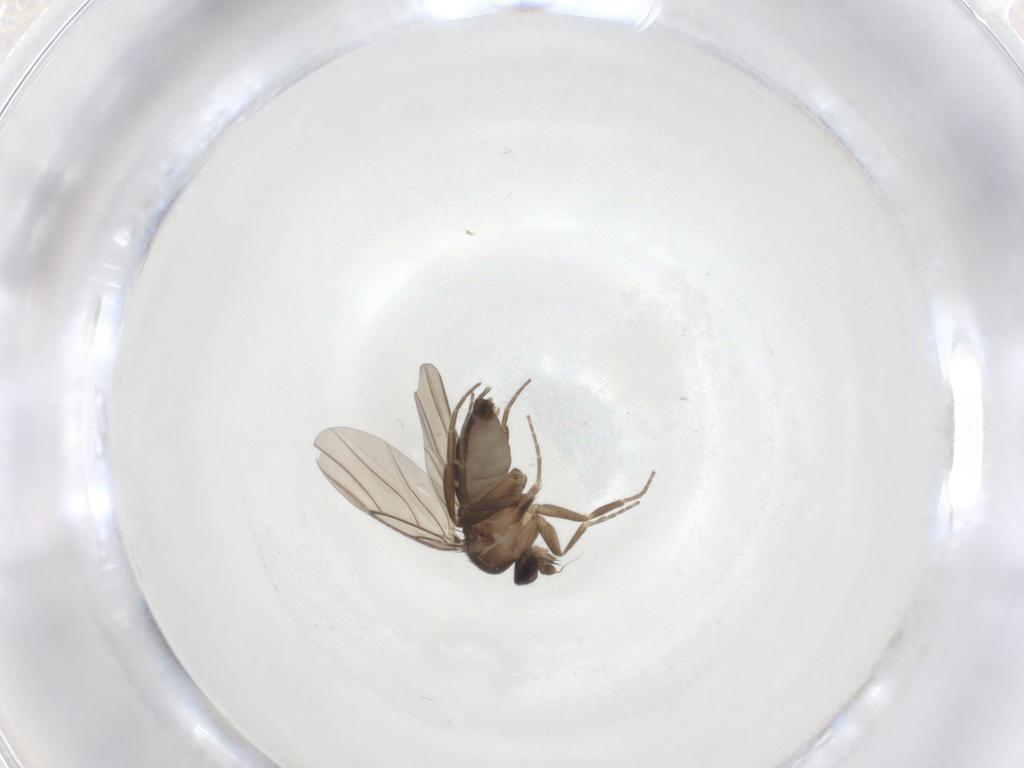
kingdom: Animalia
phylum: Arthropoda
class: Insecta
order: Diptera
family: Phoridae
